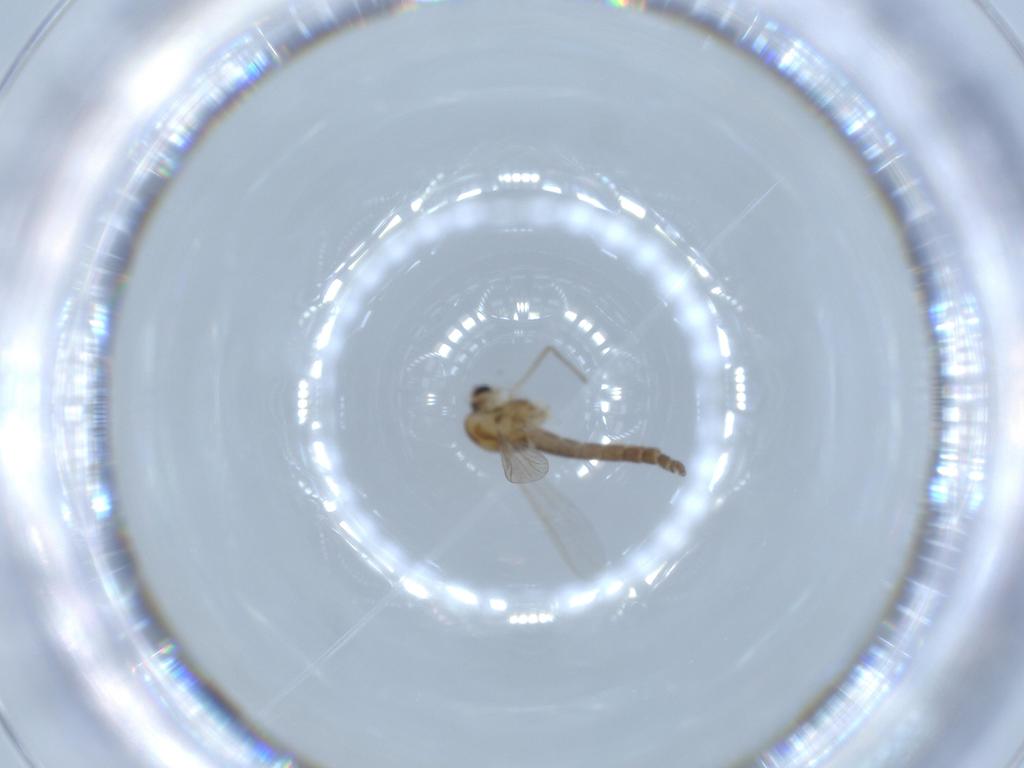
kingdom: Animalia
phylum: Arthropoda
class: Insecta
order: Diptera
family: Chironomidae
